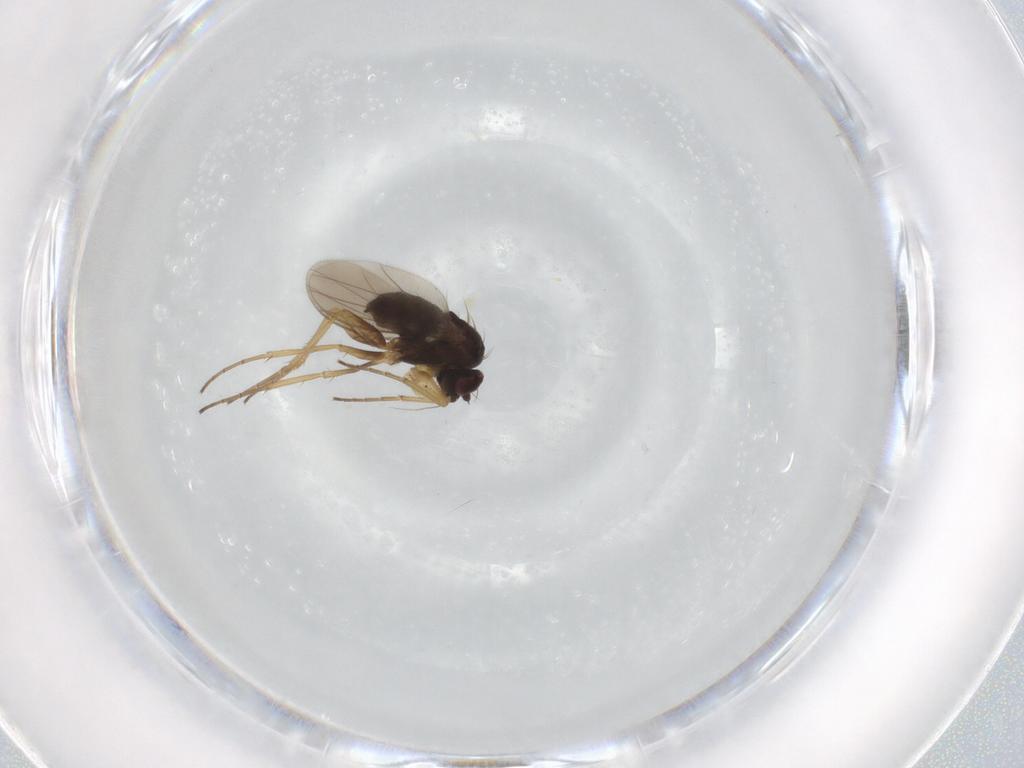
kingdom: Animalia
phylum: Arthropoda
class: Insecta
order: Diptera
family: Dolichopodidae
